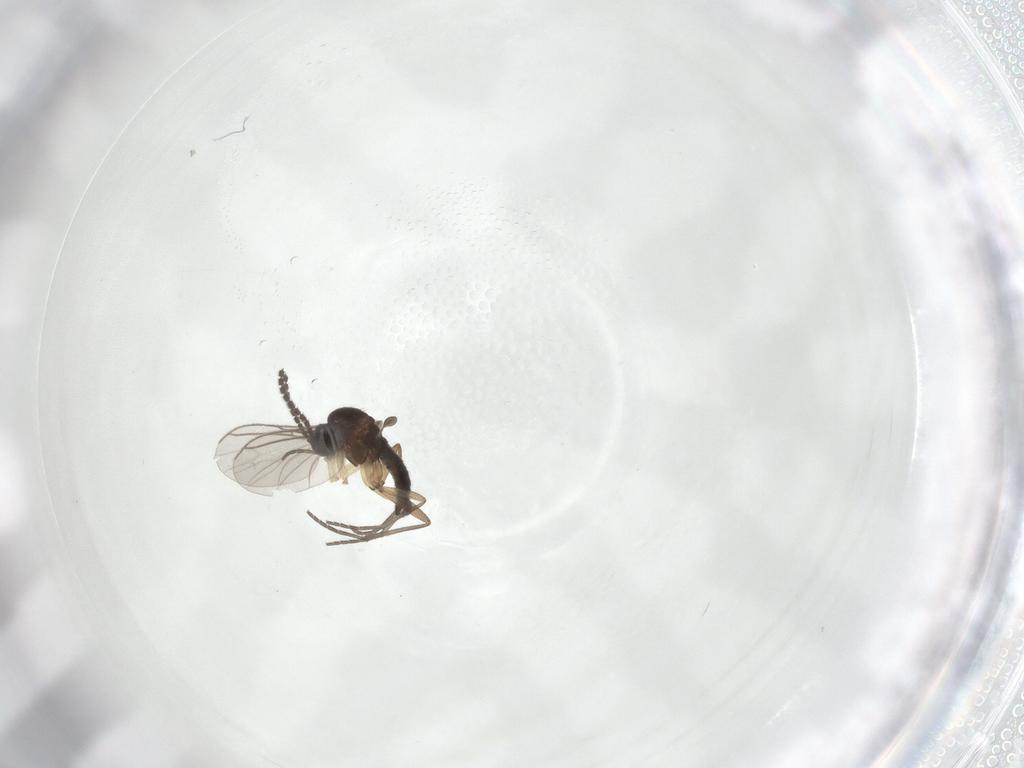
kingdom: Animalia
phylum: Arthropoda
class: Insecta
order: Diptera
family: Sciaridae
